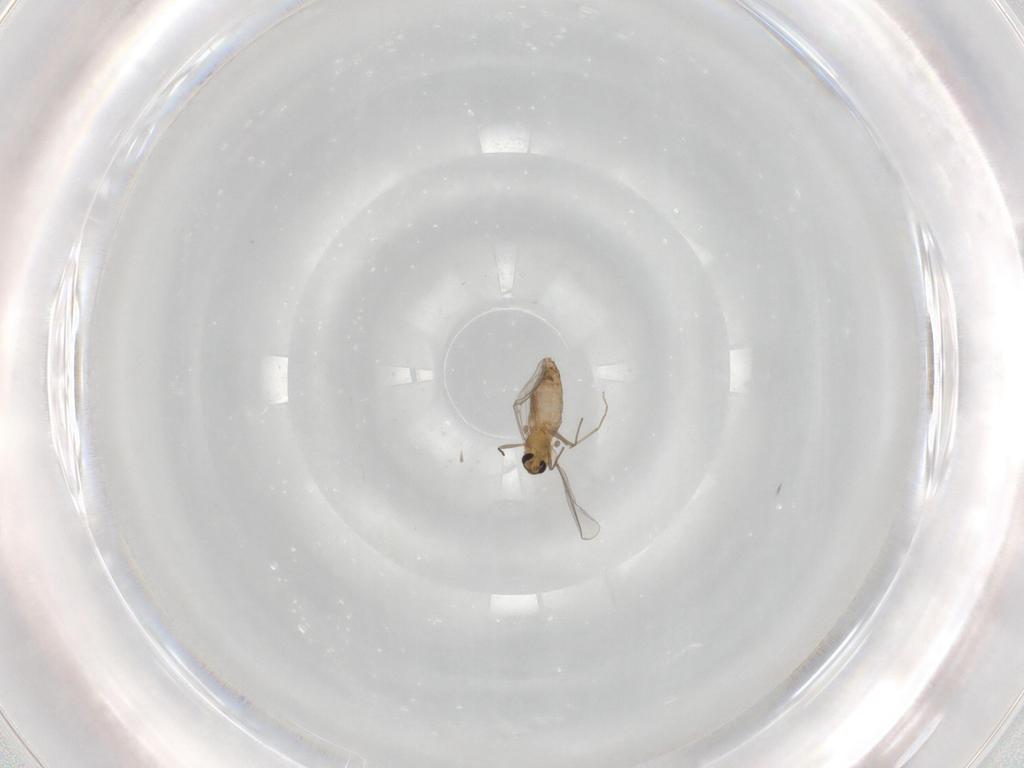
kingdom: Animalia
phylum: Arthropoda
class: Insecta
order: Diptera
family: Chironomidae
